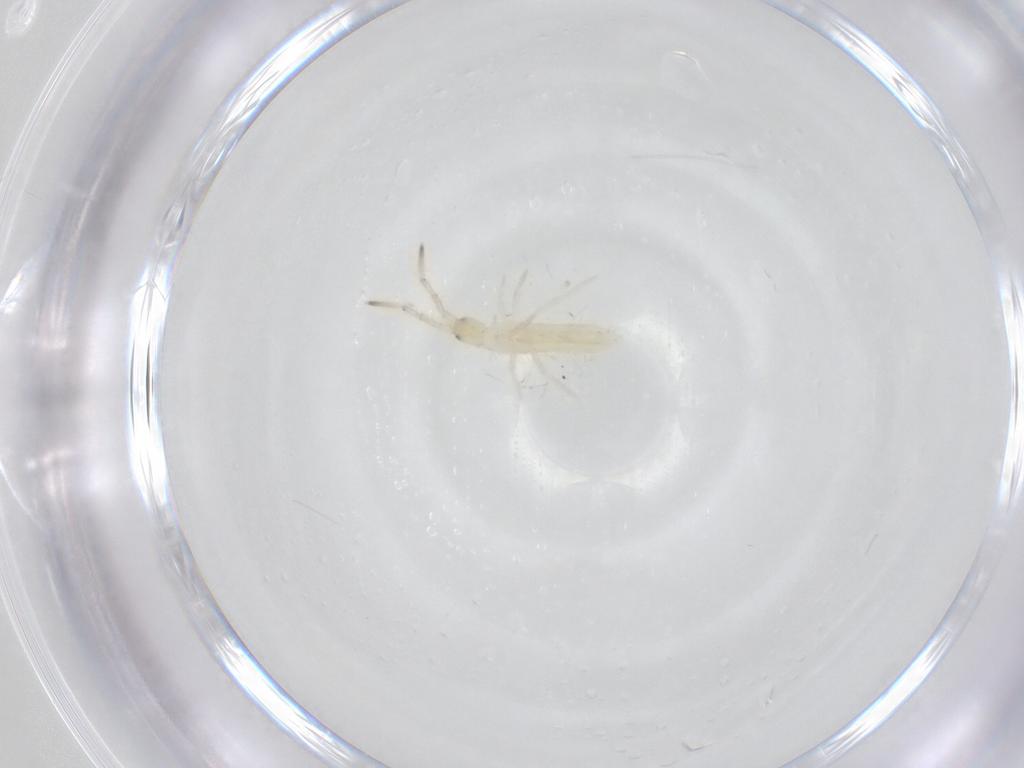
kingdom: Animalia
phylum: Arthropoda
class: Collembola
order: Entomobryomorpha
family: Entomobryidae
